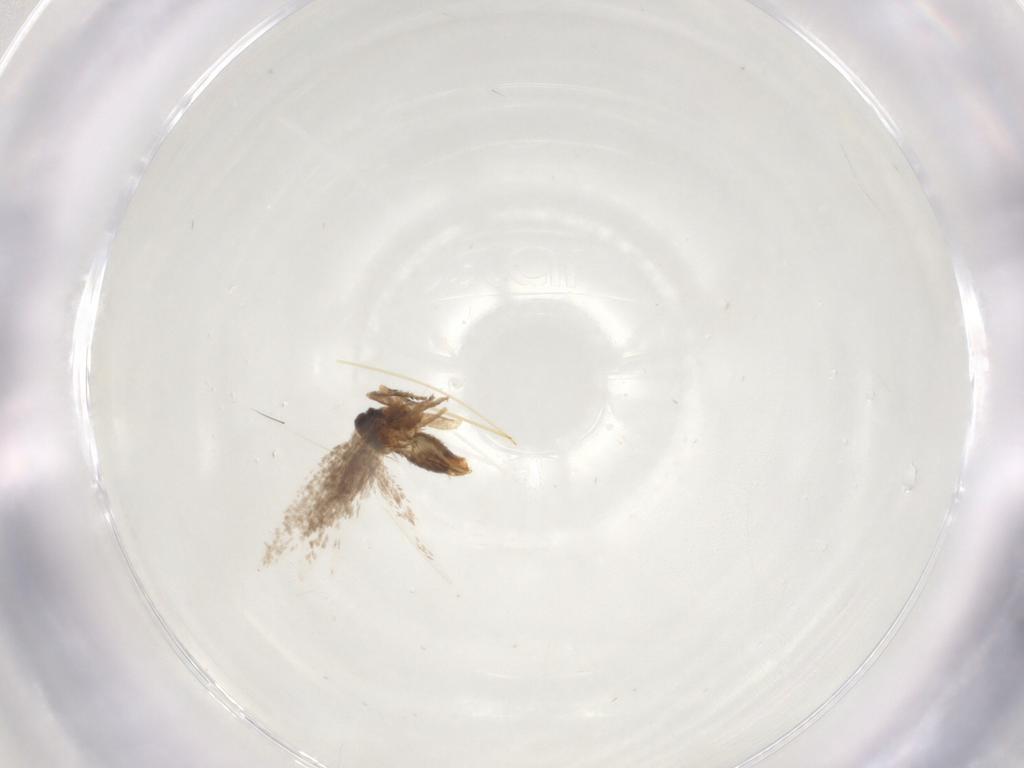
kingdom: Animalia
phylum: Arthropoda
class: Insecta
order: Lepidoptera
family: Nepticulidae
